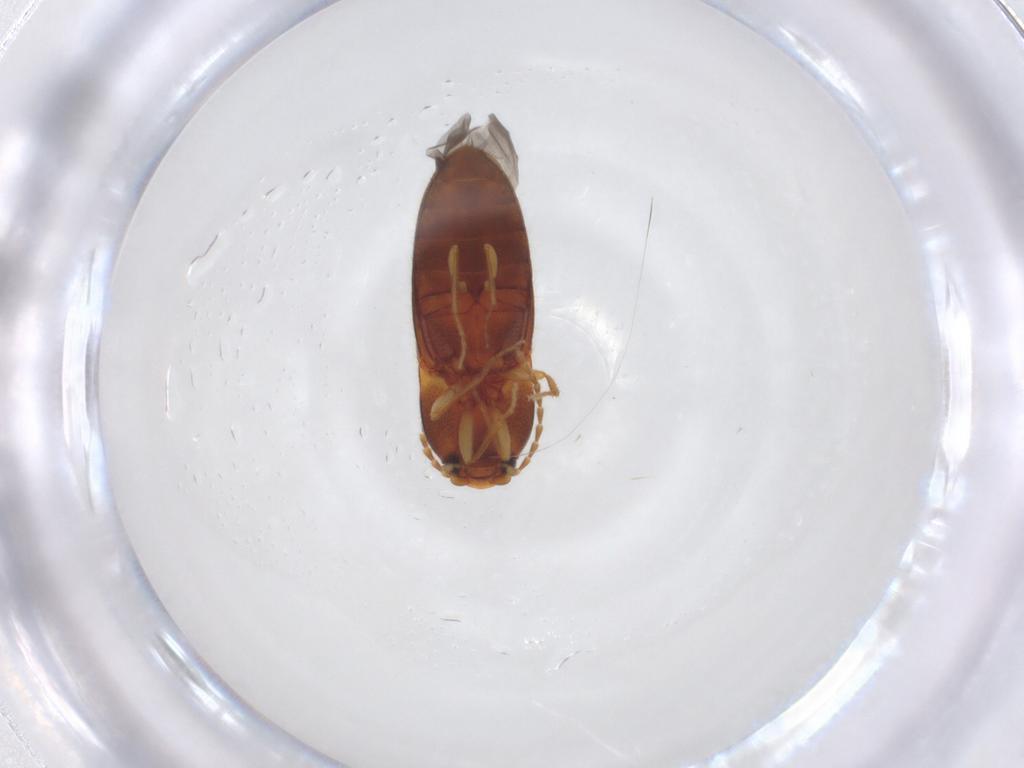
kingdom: Animalia
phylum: Arthropoda
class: Insecta
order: Coleoptera
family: Elateridae
